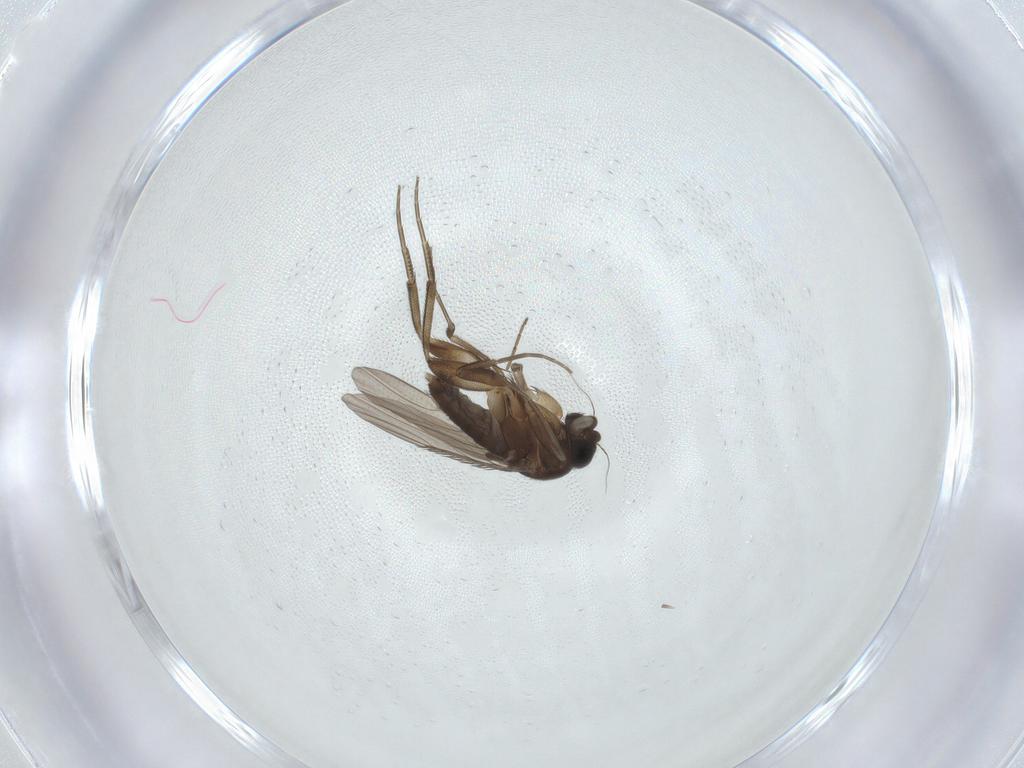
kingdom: Animalia
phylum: Arthropoda
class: Insecta
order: Diptera
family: Phoridae
